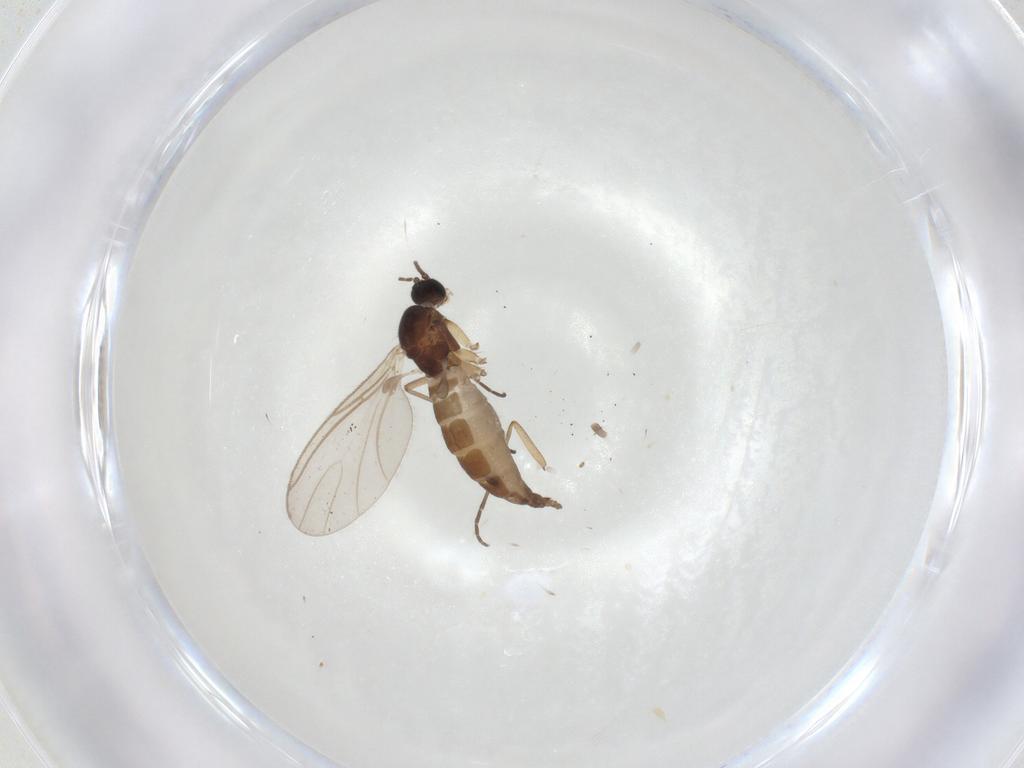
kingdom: Animalia
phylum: Arthropoda
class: Insecta
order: Diptera
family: Sciaridae
